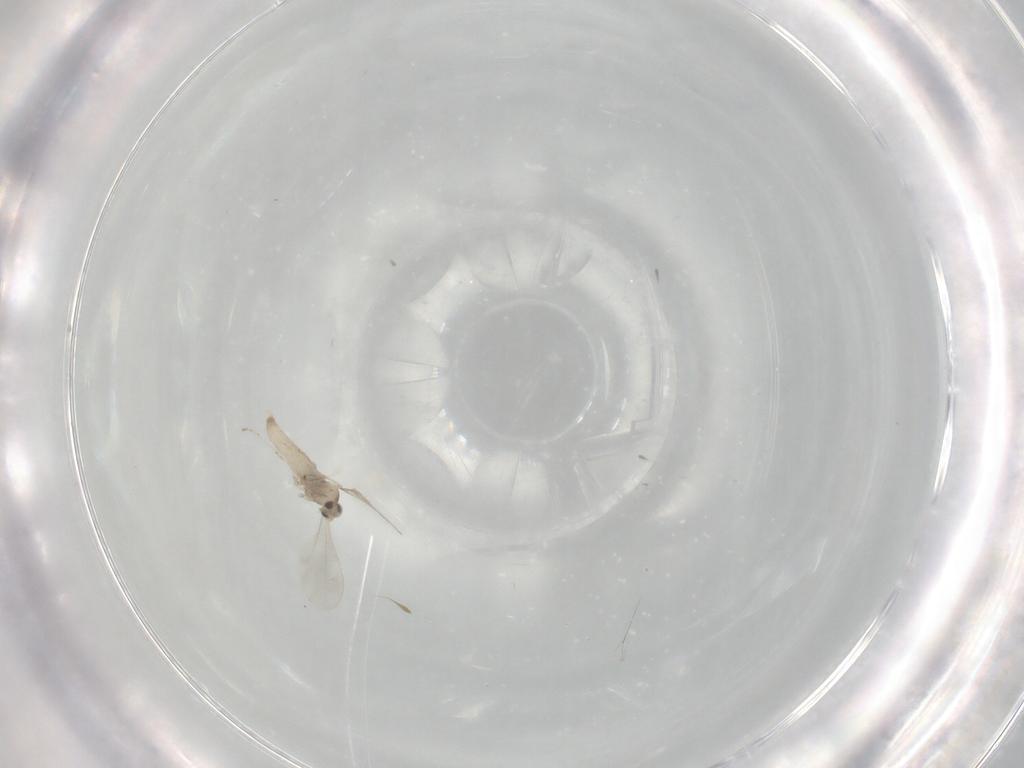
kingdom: Animalia
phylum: Arthropoda
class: Insecta
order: Diptera
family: Cecidomyiidae
